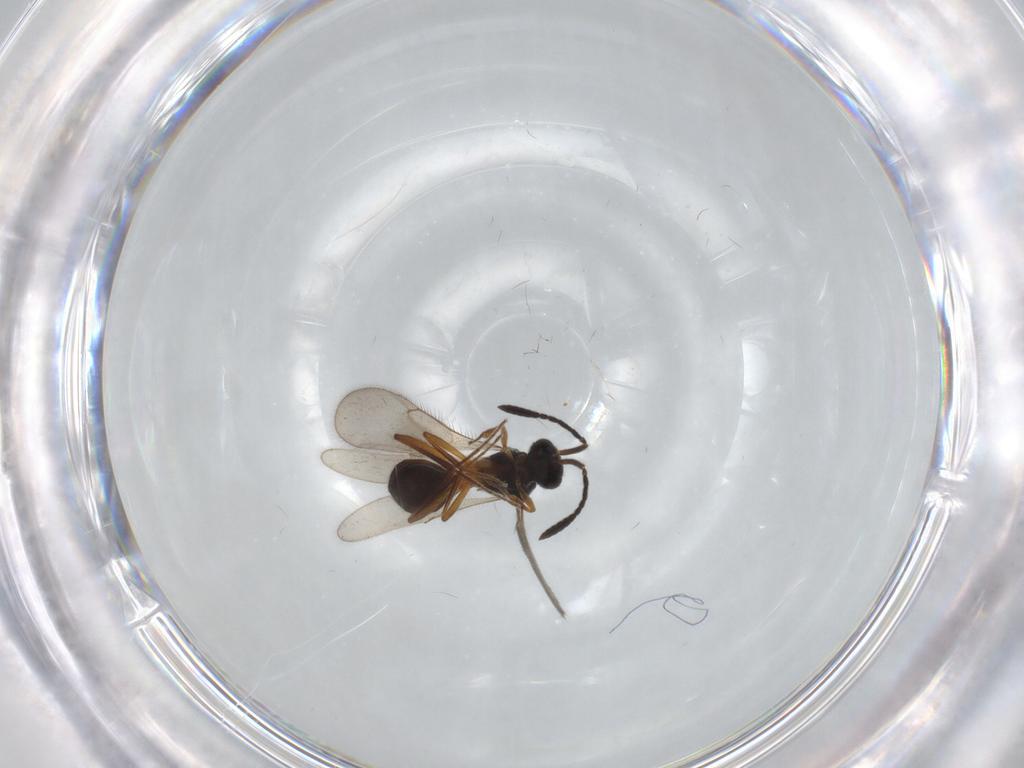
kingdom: Animalia
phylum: Arthropoda
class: Insecta
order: Hymenoptera
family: Scelionidae
